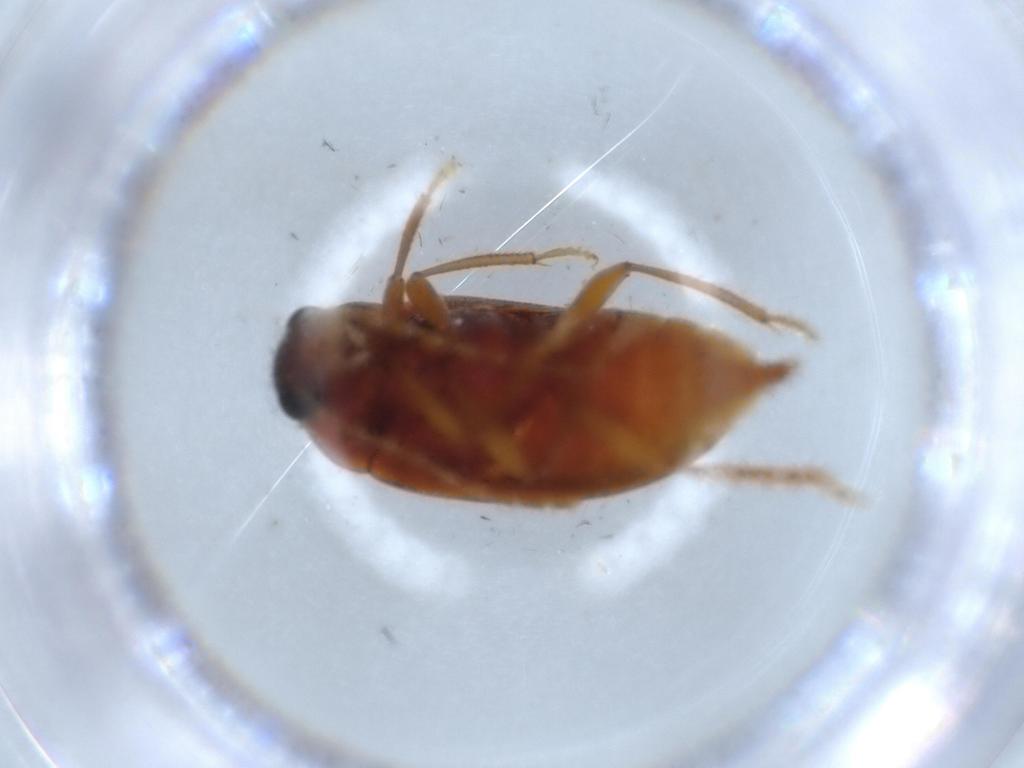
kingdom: Animalia
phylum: Arthropoda
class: Insecta
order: Coleoptera
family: Ptilodactylidae
